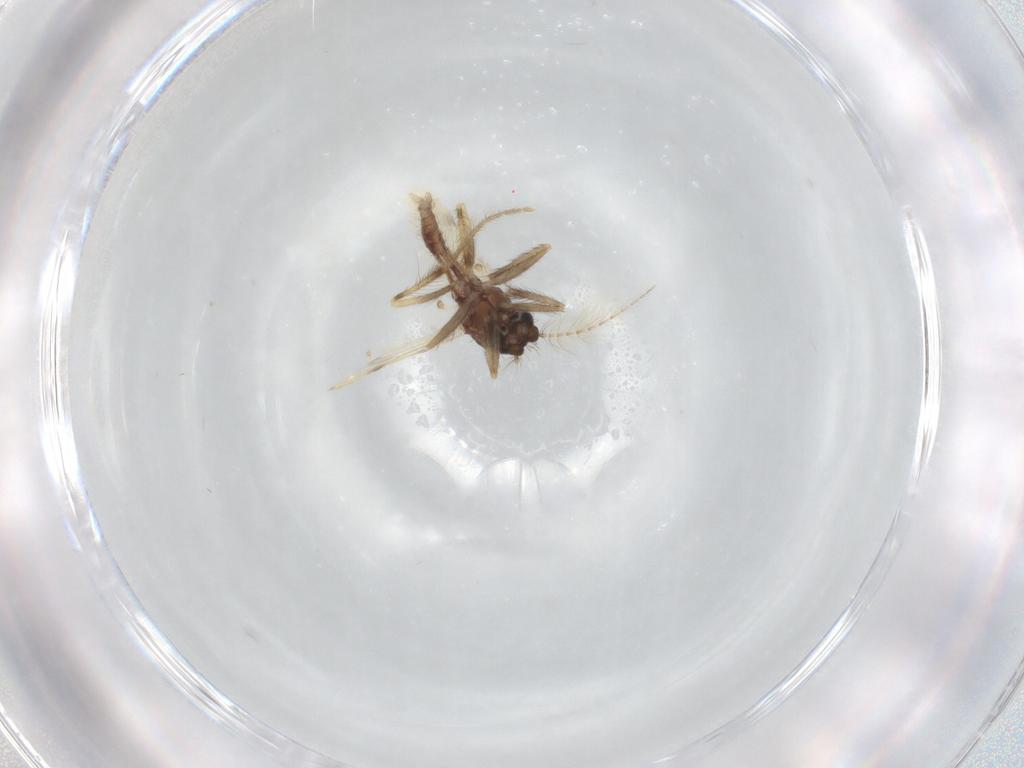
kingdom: Animalia
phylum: Arthropoda
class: Insecta
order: Diptera
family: Corethrellidae
